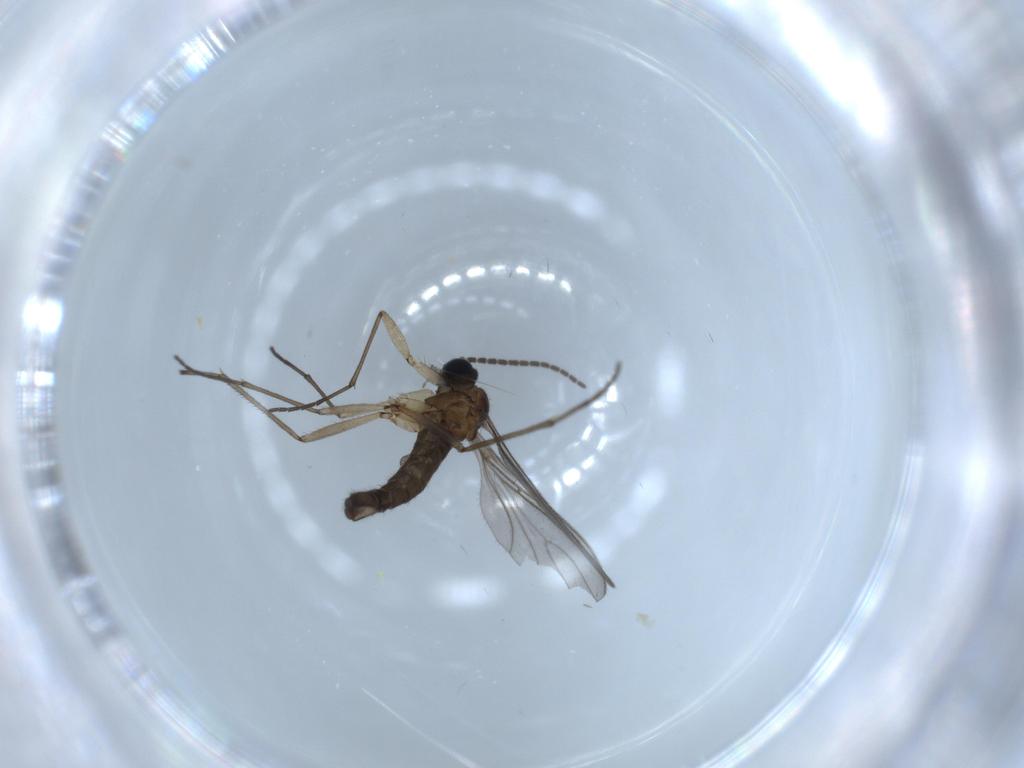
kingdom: Animalia
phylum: Arthropoda
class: Insecta
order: Diptera
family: Sciaridae
